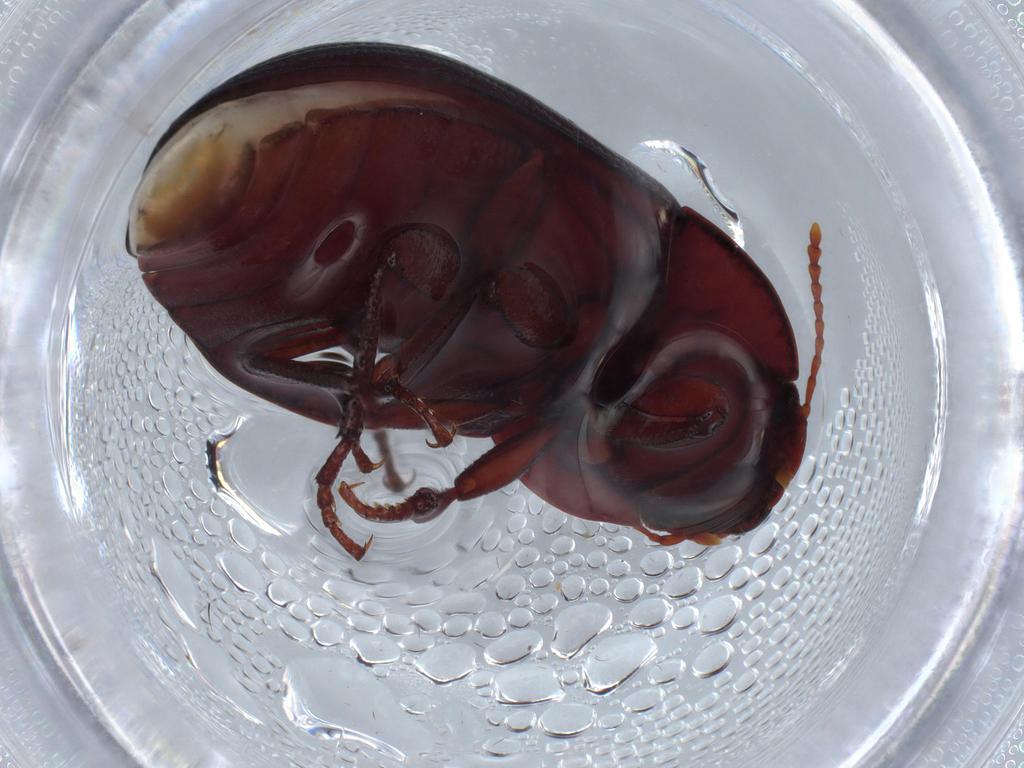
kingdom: Animalia
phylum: Arthropoda
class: Insecta
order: Coleoptera
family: Tenebrionidae
